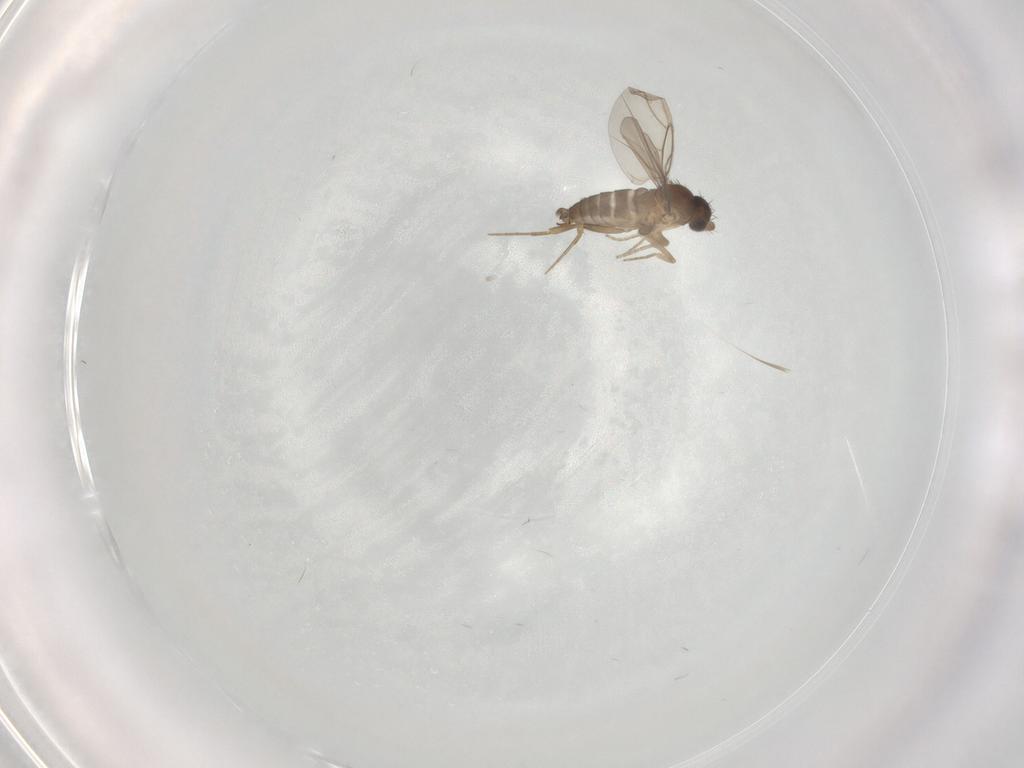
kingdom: Animalia
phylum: Arthropoda
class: Insecta
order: Diptera
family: Phoridae
